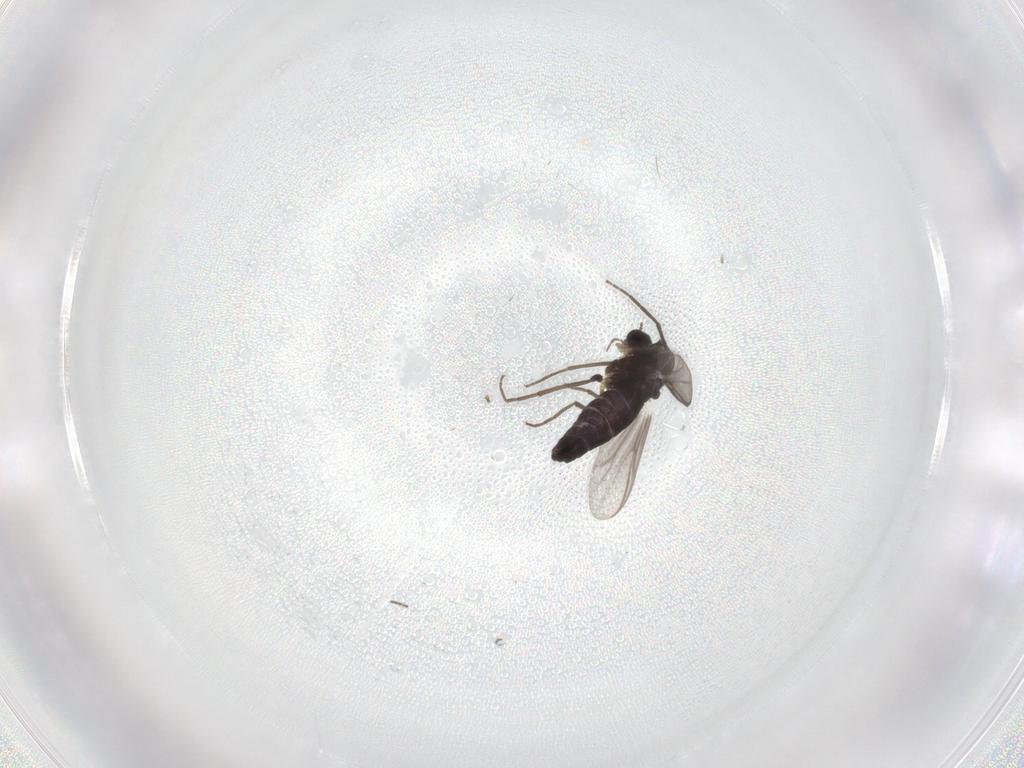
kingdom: Animalia
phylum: Arthropoda
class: Insecta
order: Diptera
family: Chironomidae
